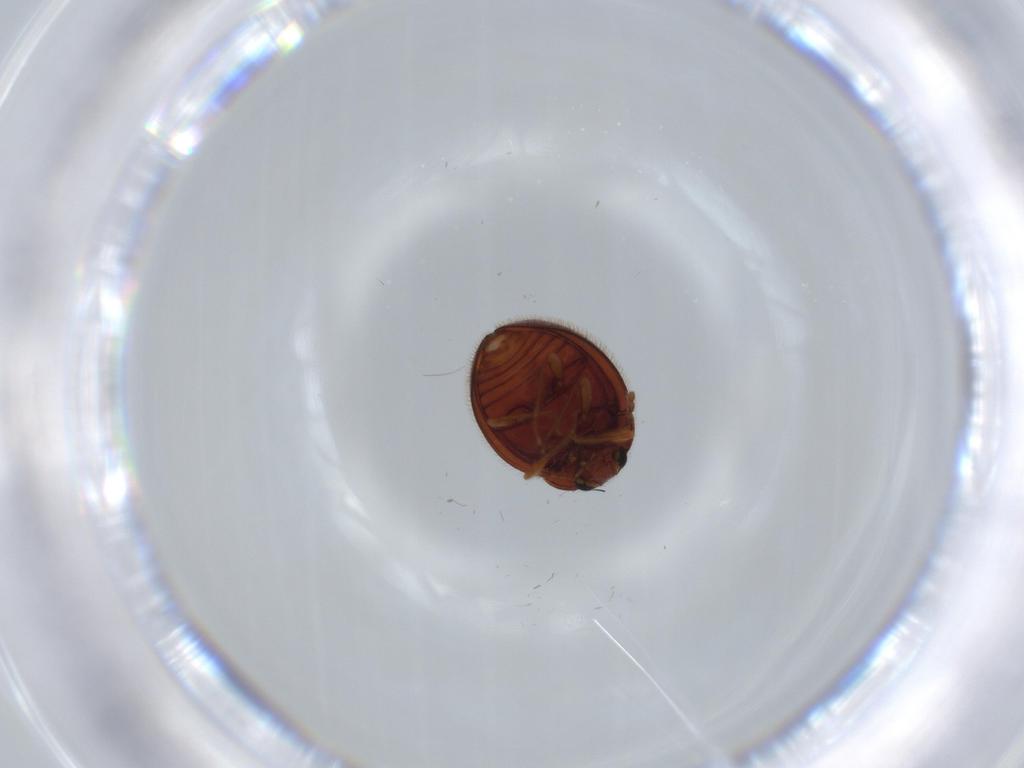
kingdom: Animalia
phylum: Arthropoda
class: Insecta
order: Coleoptera
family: Anamorphidae
